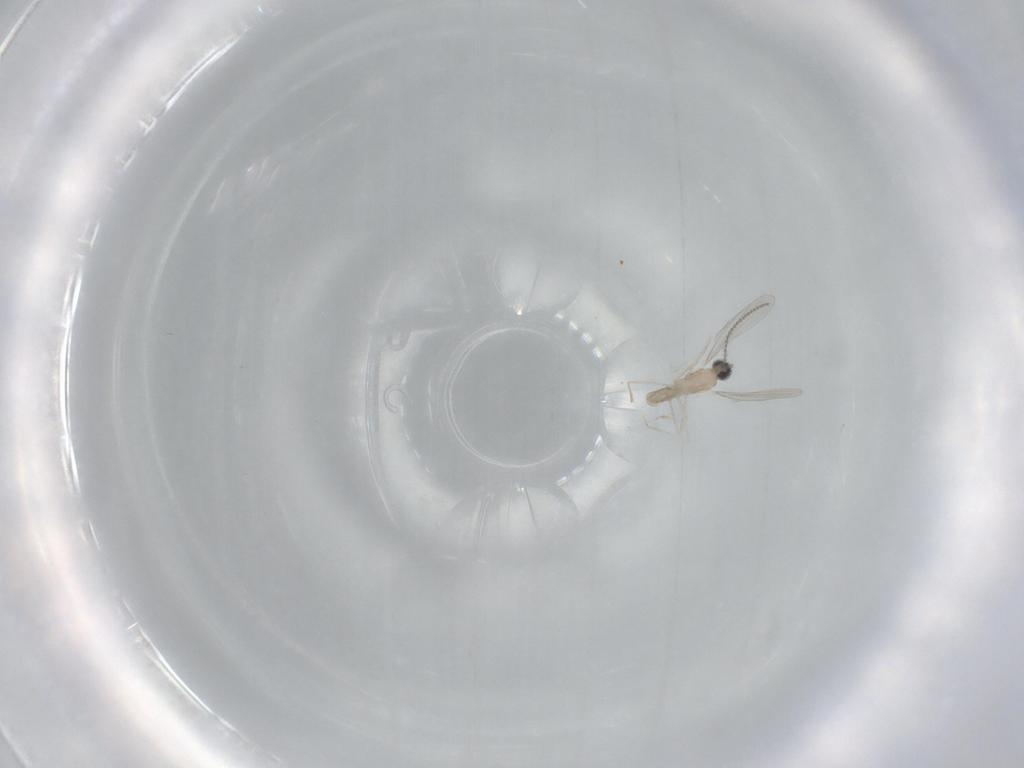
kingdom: Animalia
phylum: Arthropoda
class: Insecta
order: Diptera
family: Cecidomyiidae
